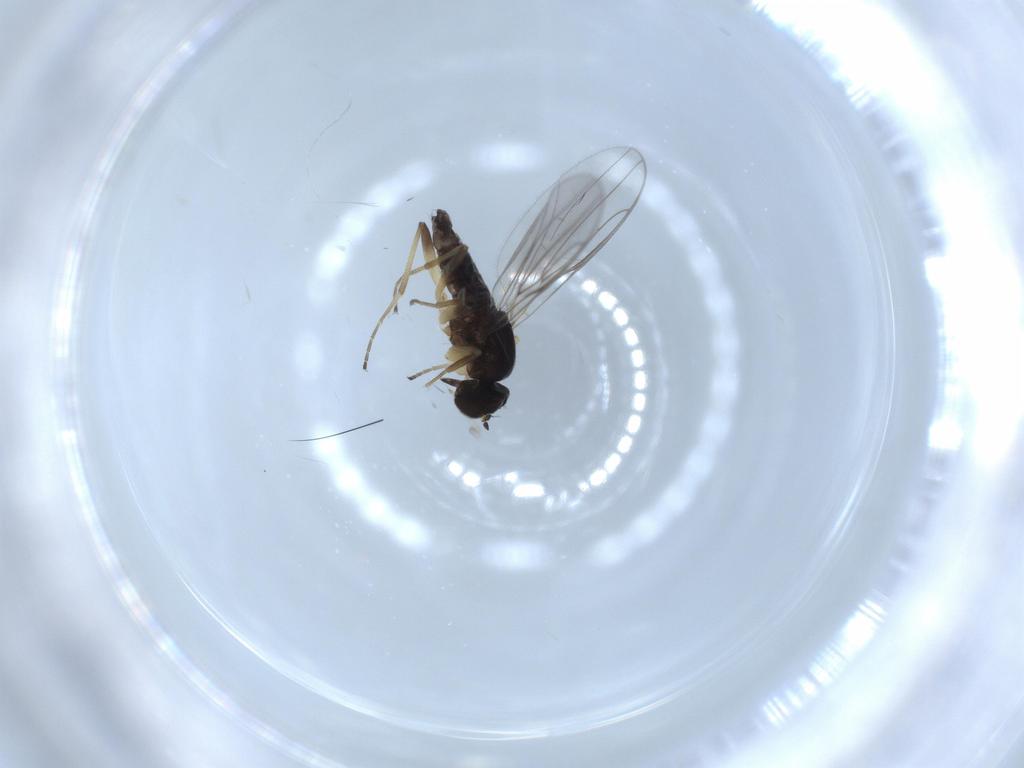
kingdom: Animalia
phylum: Arthropoda
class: Insecta
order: Diptera
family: Hybotidae
